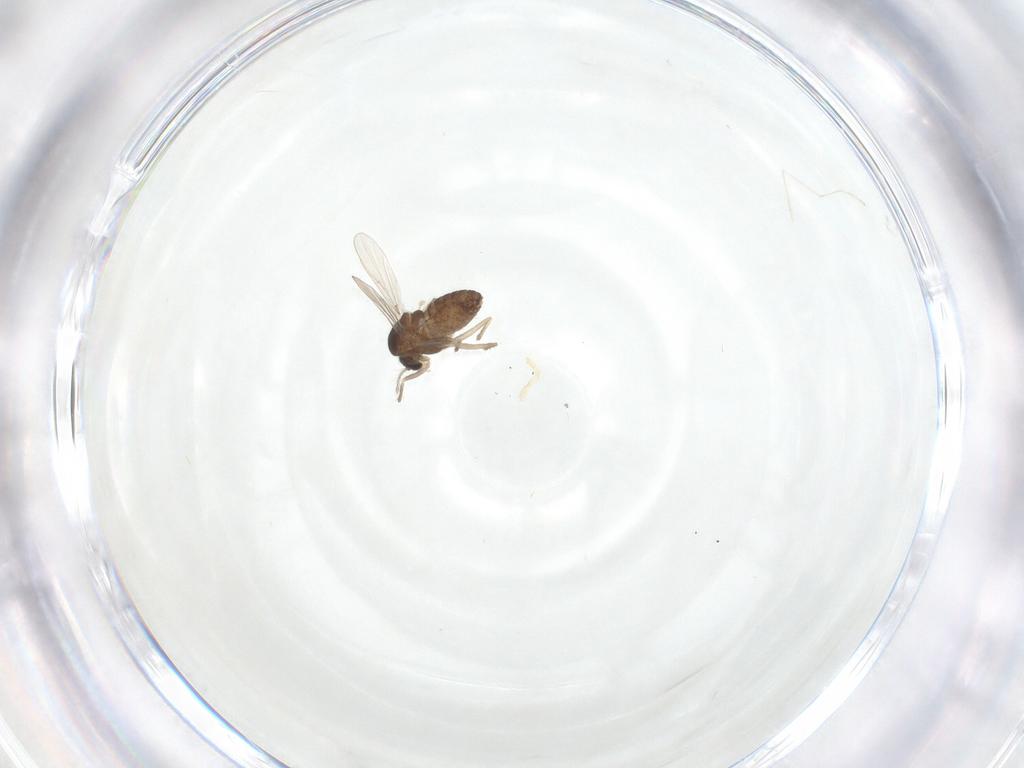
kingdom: Animalia
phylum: Arthropoda
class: Insecta
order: Diptera
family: Chironomidae
